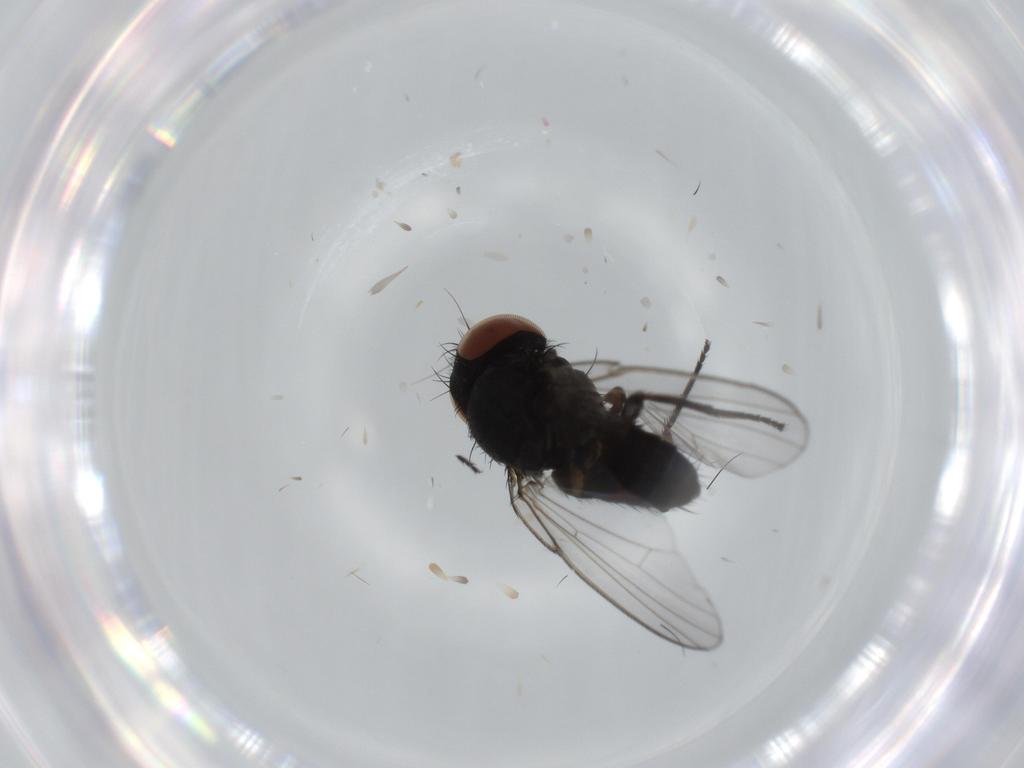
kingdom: Animalia
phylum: Arthropoda
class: Insecta
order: Diptera
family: Milichiidae
